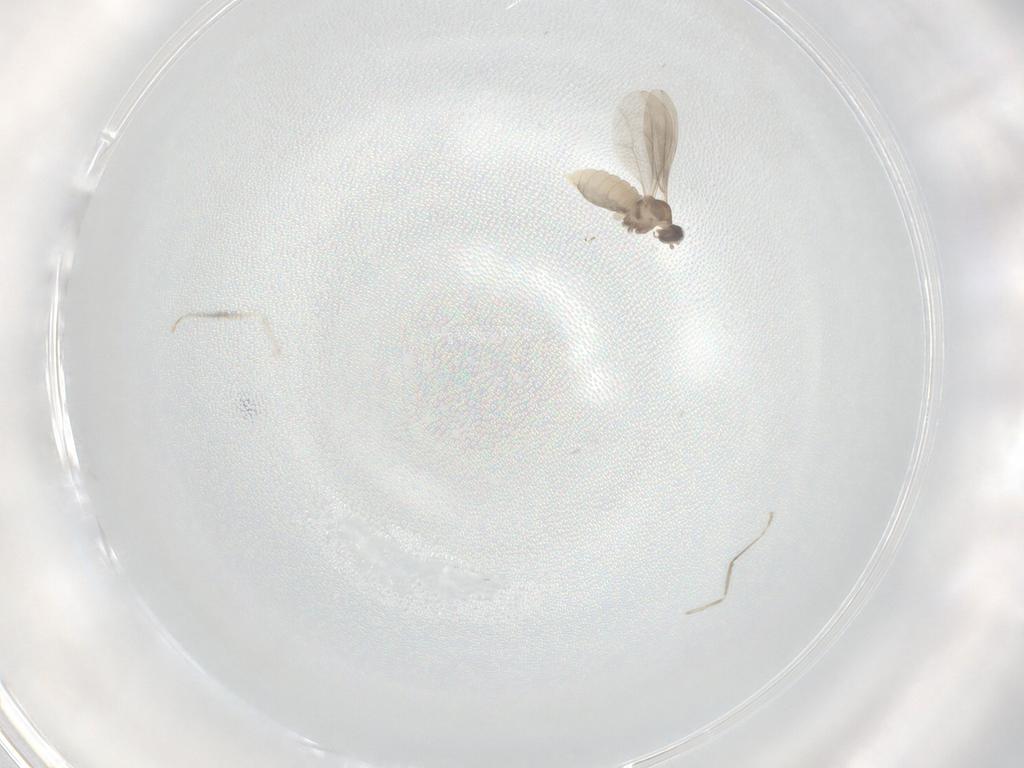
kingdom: Animalia
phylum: Arthropoda
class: Insecta
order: Diptera
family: Cecidomyiidae
